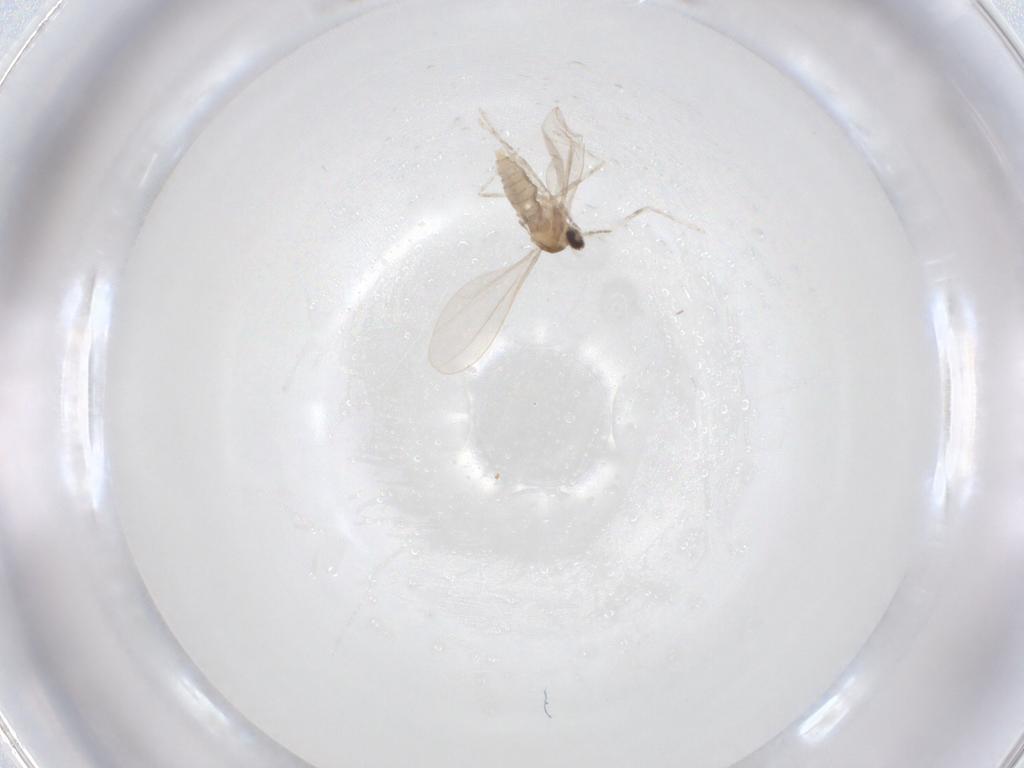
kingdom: Animalia
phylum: Arthropoda
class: Collembola
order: Entomobryomorpha
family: Entomobryidae
